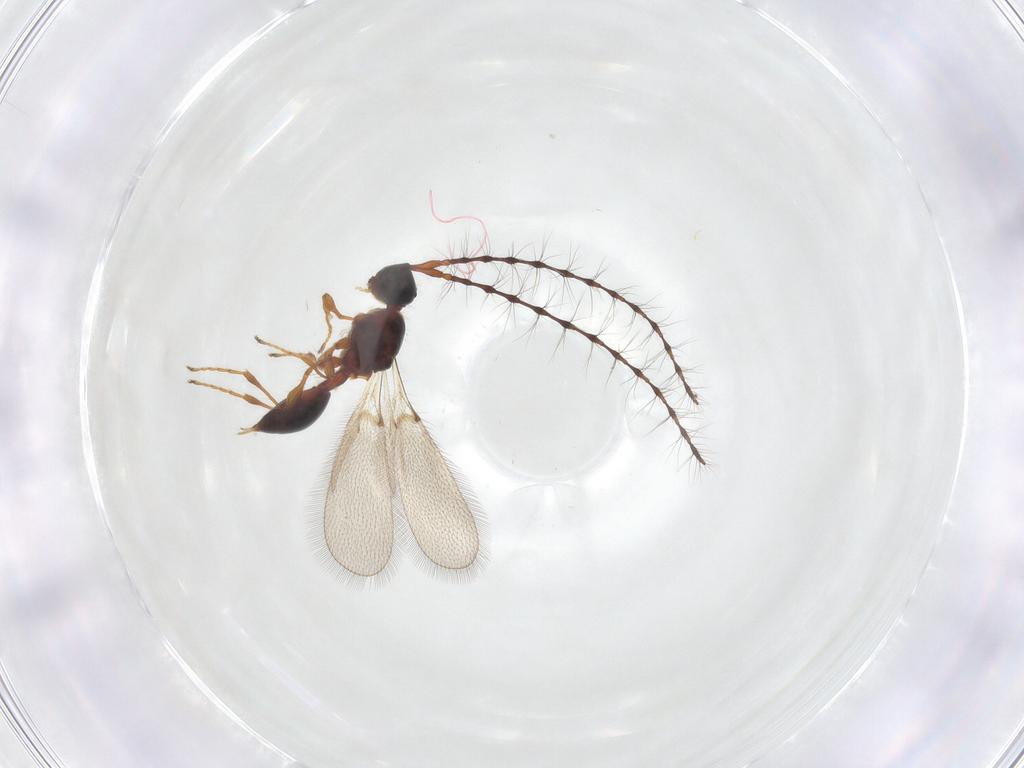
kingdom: Animalia
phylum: Arthropoda
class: Insecta
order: Hymenoptera
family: Diapriidae
